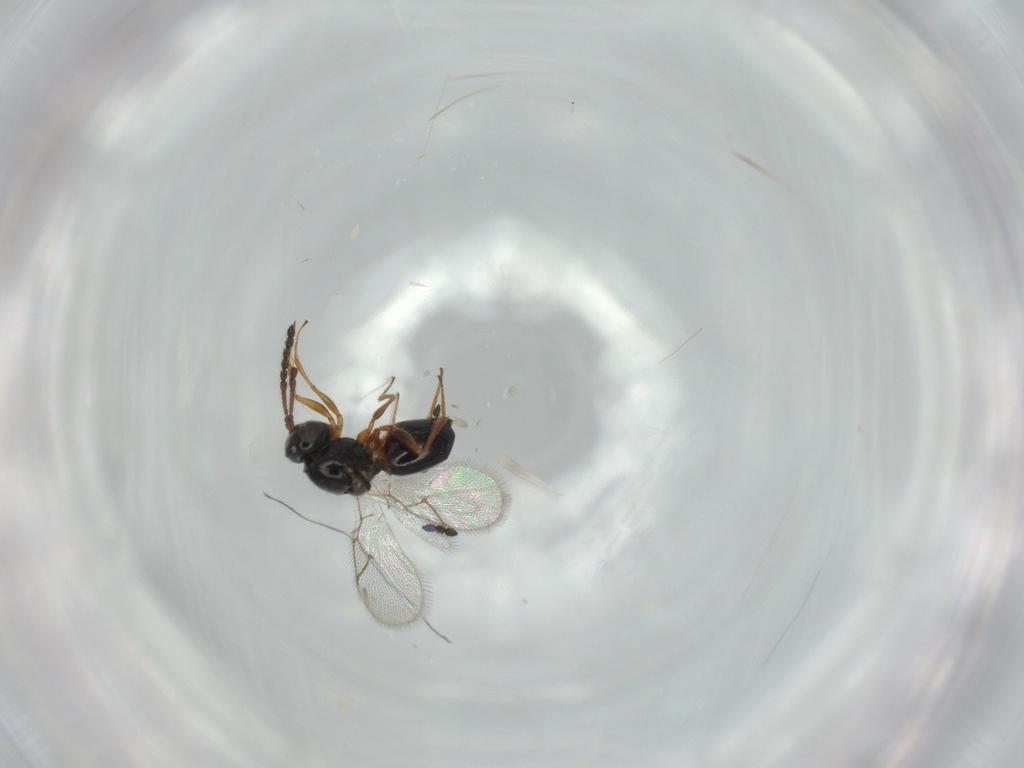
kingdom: Animalia
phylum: Arthropoda
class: Insecta
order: Hymenoptera
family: Figitidae
